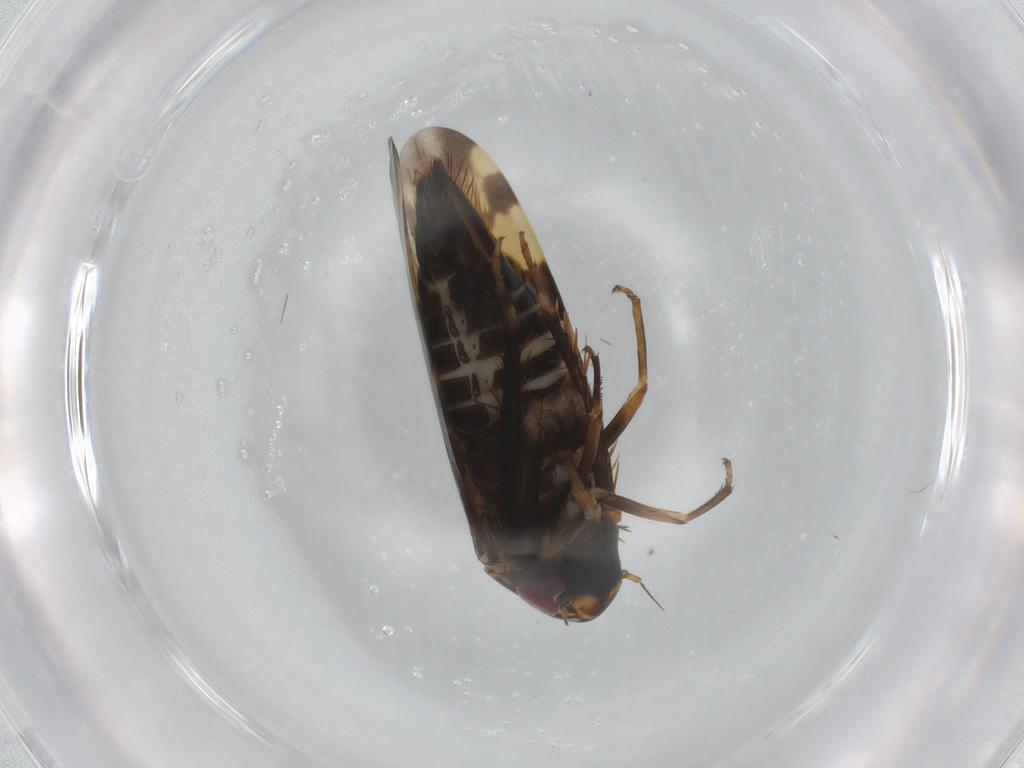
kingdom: Animalia
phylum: Arthropoda
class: Insecta
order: Hemiptera
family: Cicadellidae
